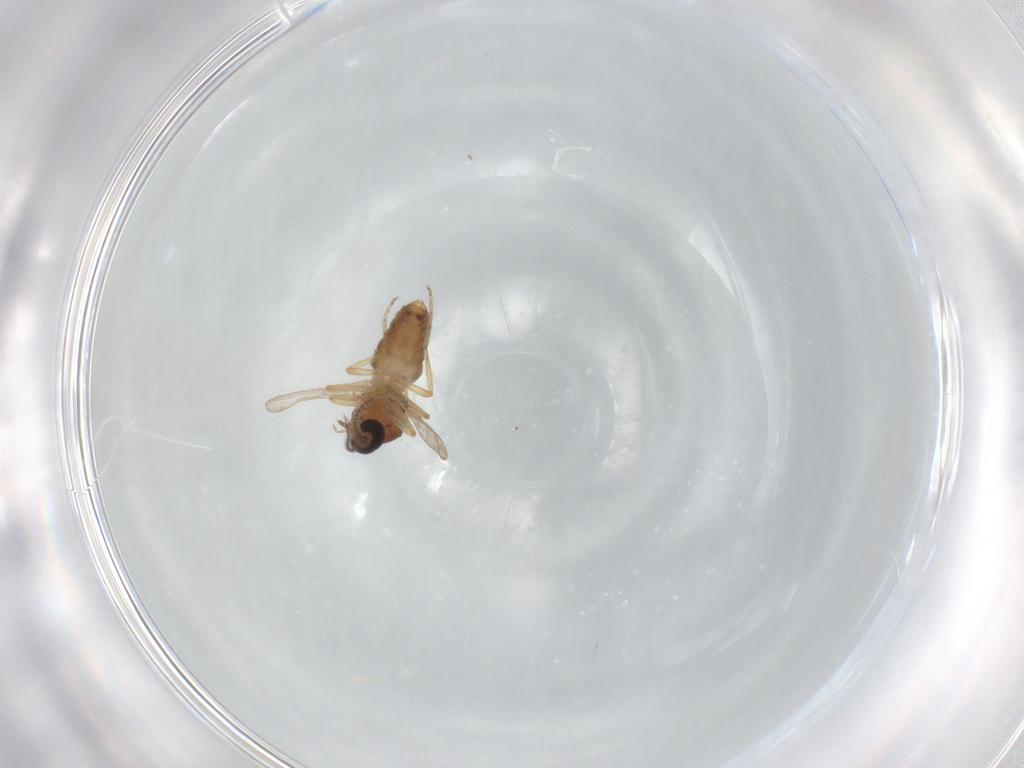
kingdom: Animalia
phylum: Arthropoda
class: Insecta
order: Diptera
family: Ceratopogonidae
